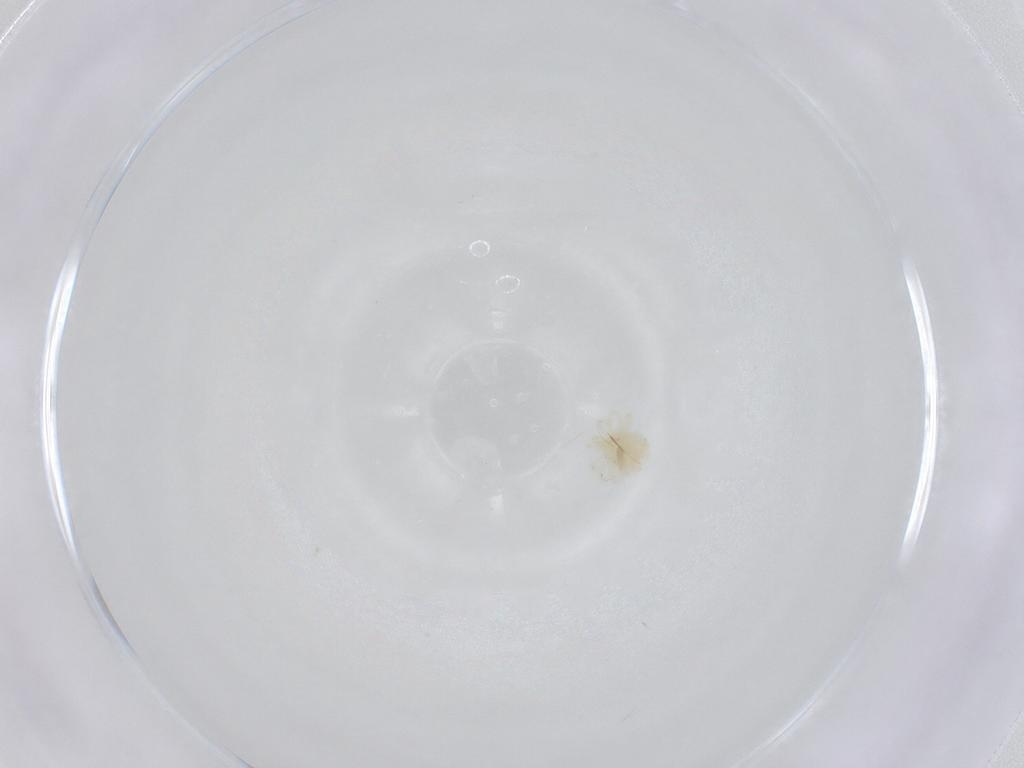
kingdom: Animalia
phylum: Arthropoda
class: Arachnida
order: Trombidiformes
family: Anystidae
